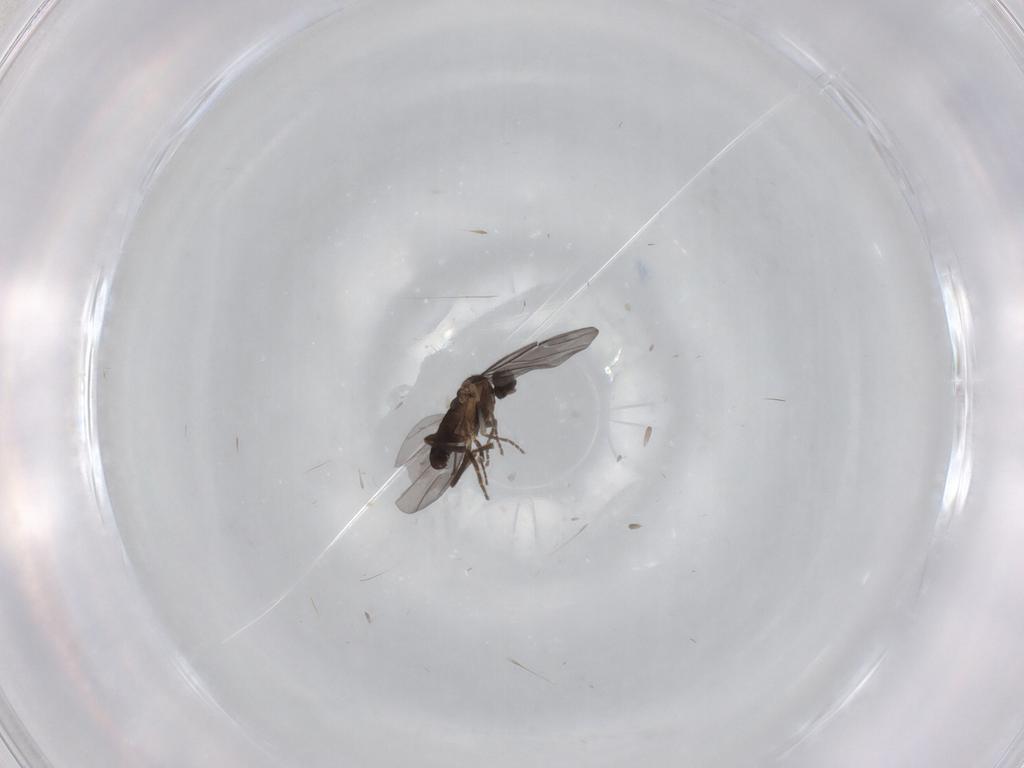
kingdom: Animalia
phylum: Arthropoda
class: Insecta
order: Diptera
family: Phoridae
